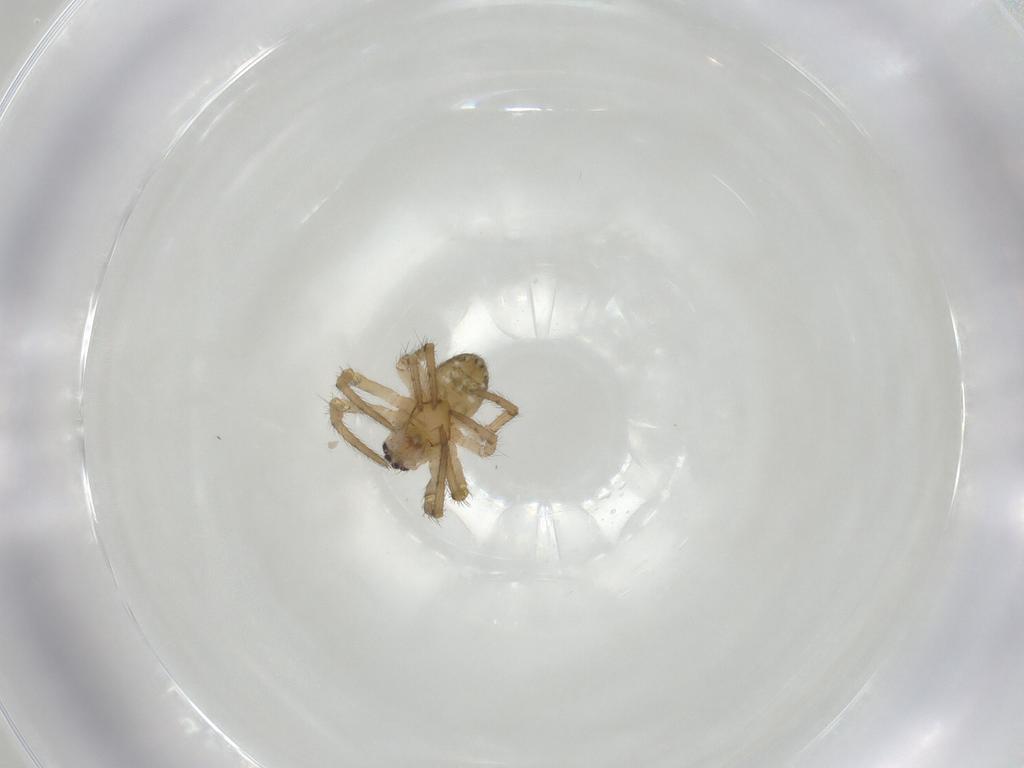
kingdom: Animalia
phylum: Arthropoda
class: Arachnida
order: Araneae
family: Araneidae
